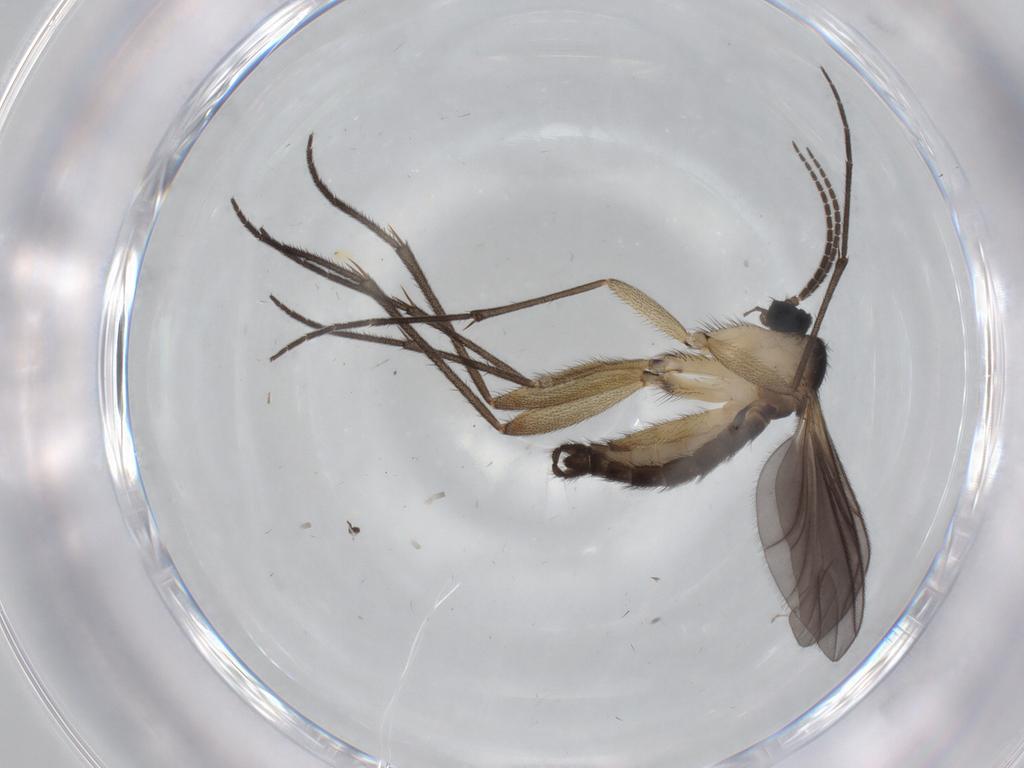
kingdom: Animalia
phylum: Arthropoda
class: Insecta
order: Diptera
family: Sciaridae
